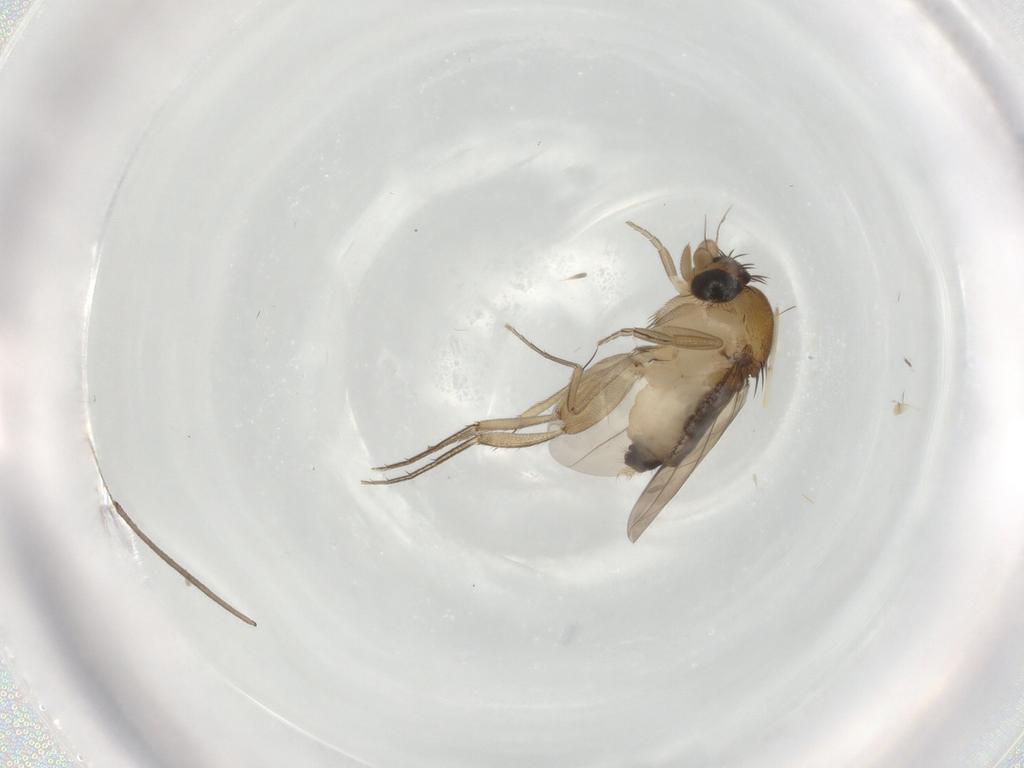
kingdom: Animalia
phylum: Arthropoda
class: Insecta
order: Diptera
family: Phoridae
